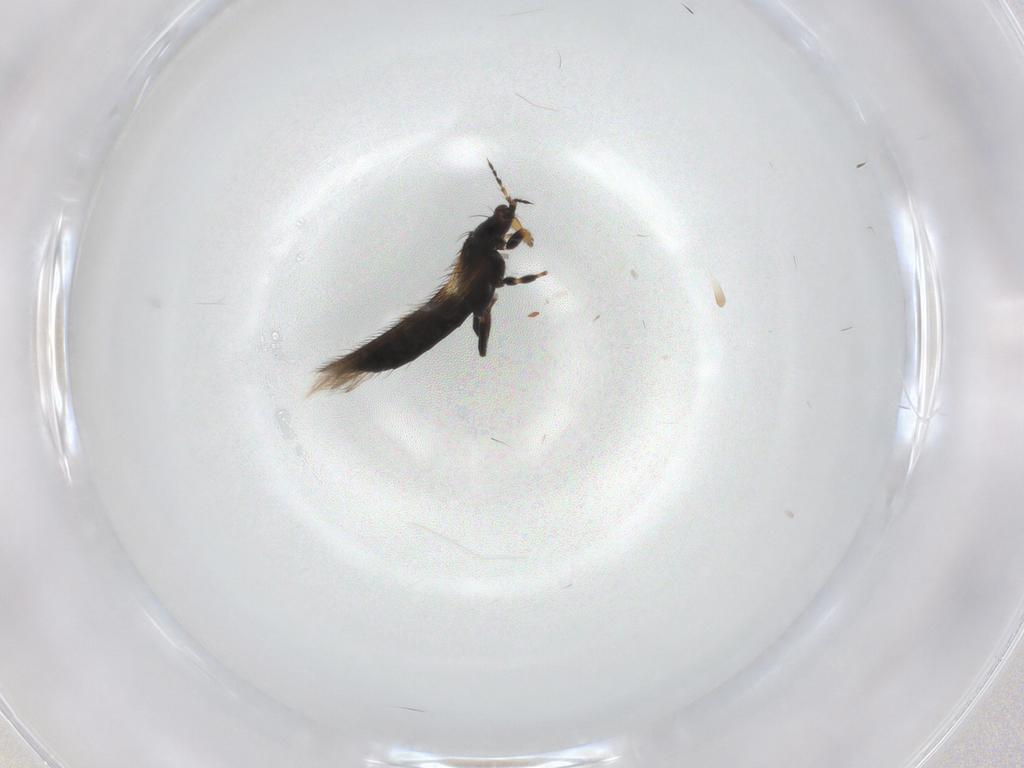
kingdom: Animalia
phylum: Arthropoda
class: Insecta
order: Thysanoptera
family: Thripidae
